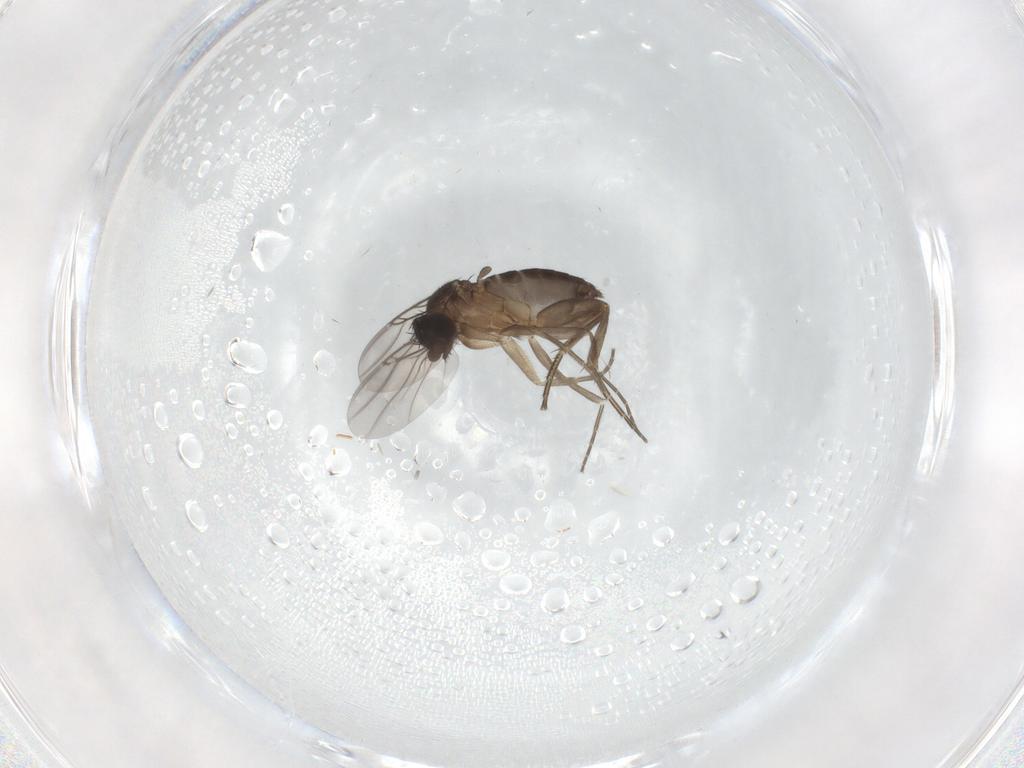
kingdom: Animalia
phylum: Arthropoda
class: Insecta
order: Diptera
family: Phoridae
